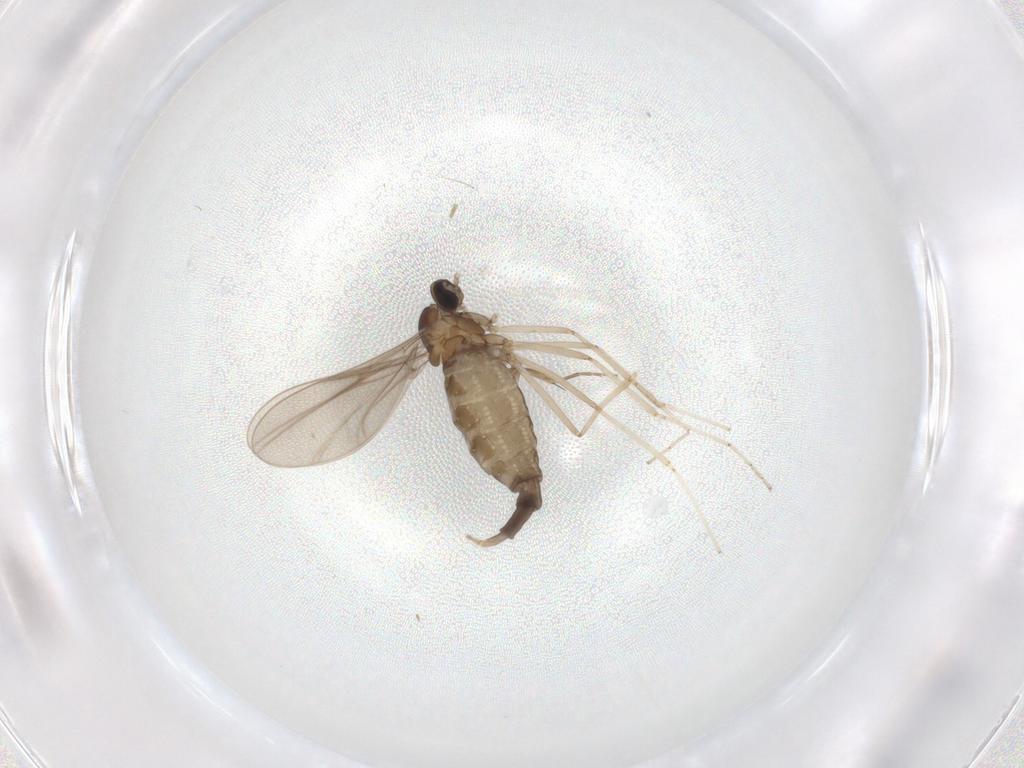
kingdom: Animalia
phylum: Arthropoda
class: Insecta
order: Diptera
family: Cecidomyiidae
